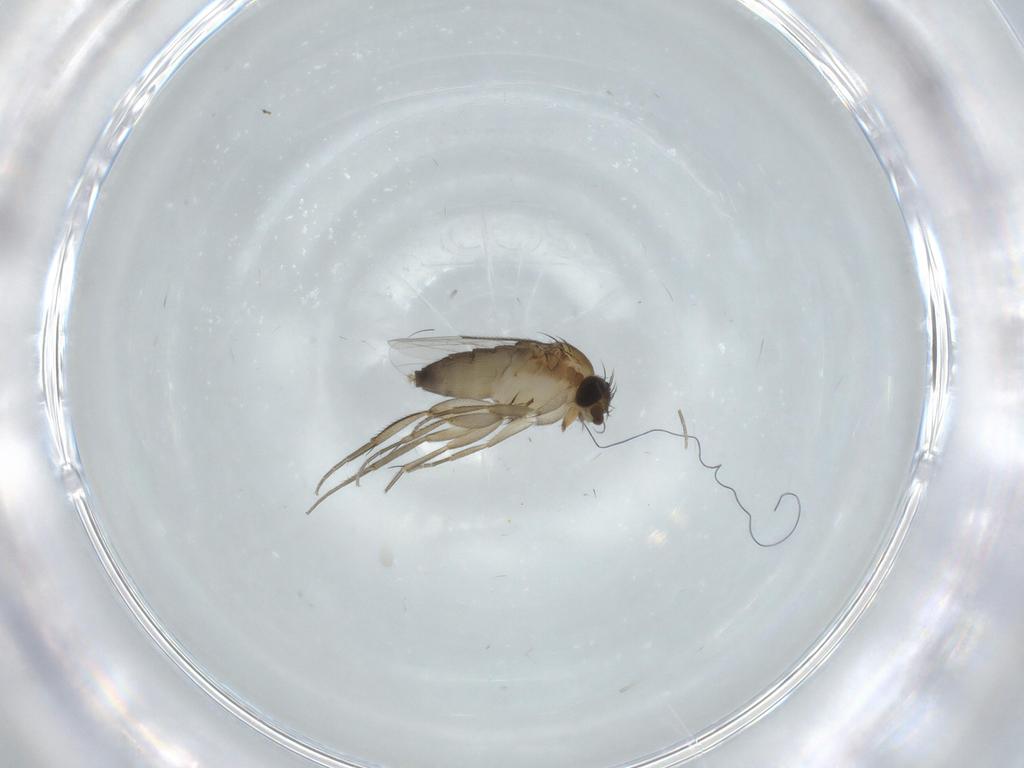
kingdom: Animalia
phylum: Arthropoda
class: Insecta
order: Diptera
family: Phoridae
